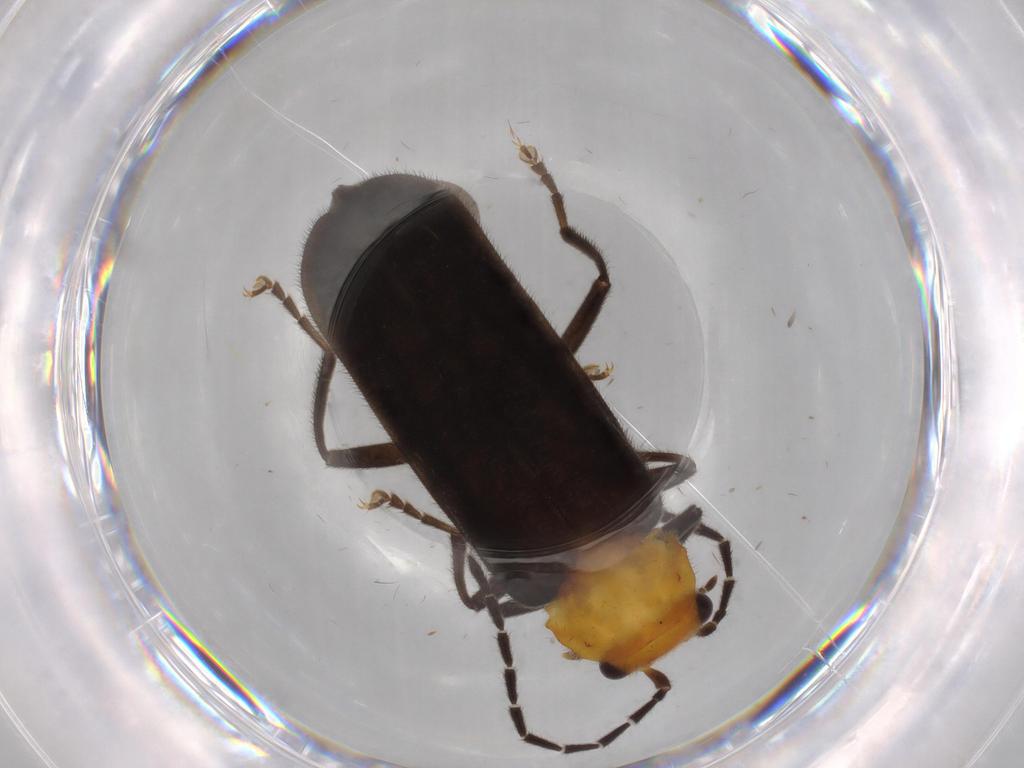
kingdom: Animalia
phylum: Arthropoda
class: Insecta
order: Coleoptera
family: Cantharidae
